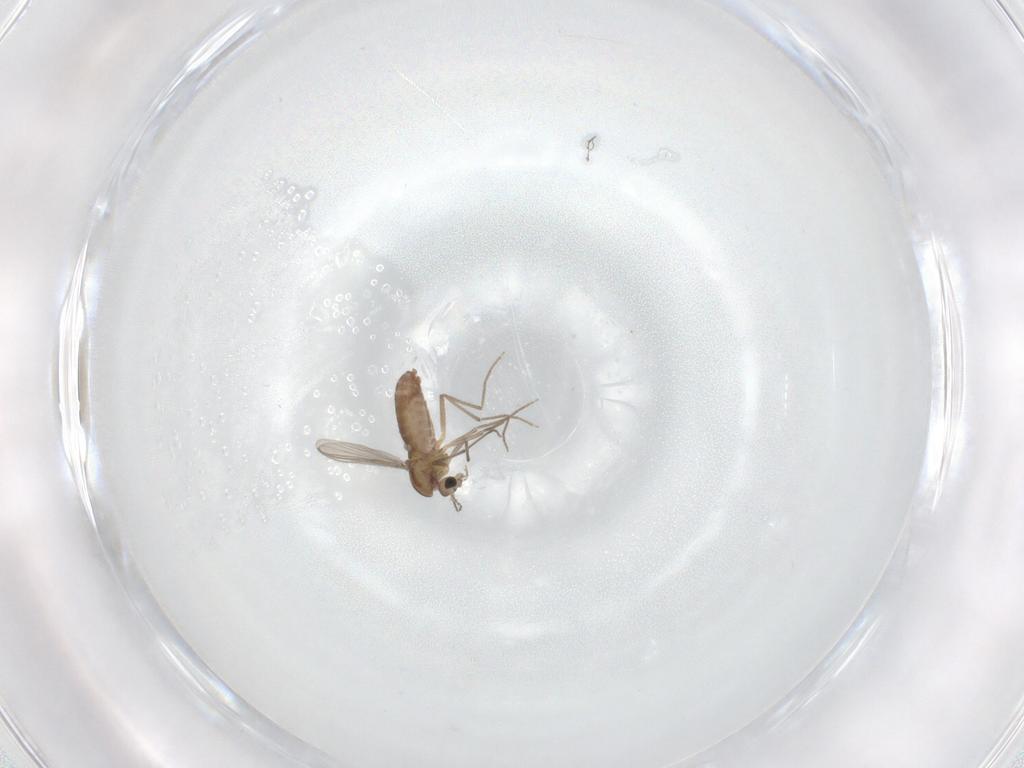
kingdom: Animalia
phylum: Arthropoda
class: Insecta
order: Diptera
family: Chironomidae
